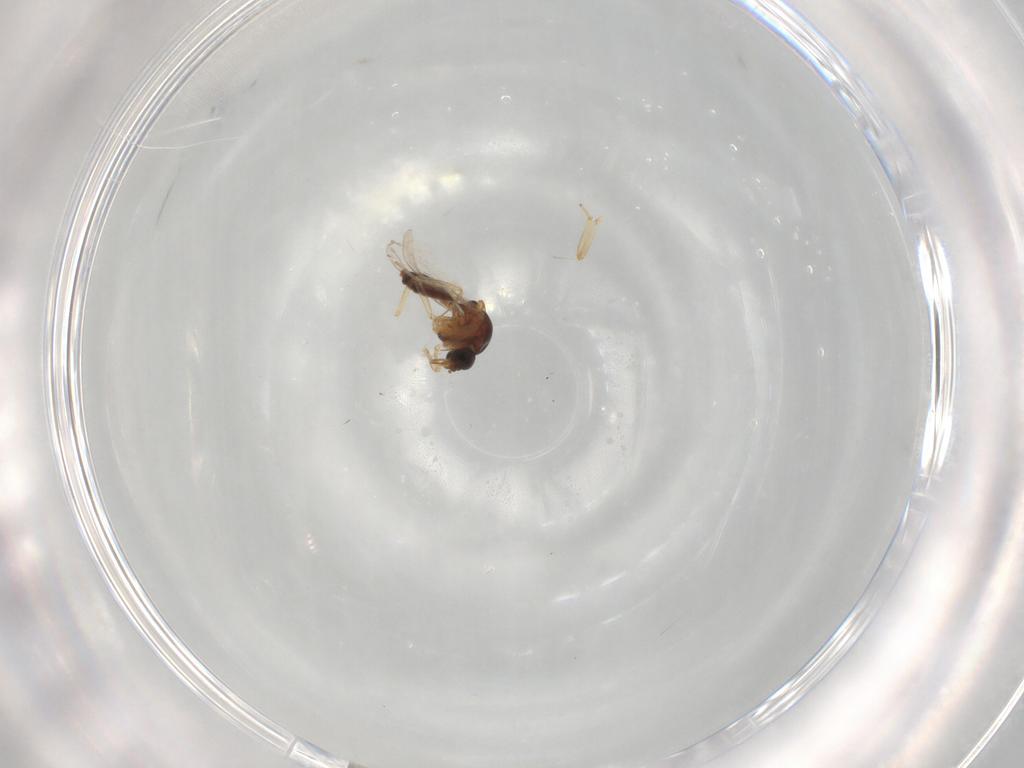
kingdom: Animalia
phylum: Arthropoda
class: Insecta
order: Diptera
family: Ceratopogonidae
